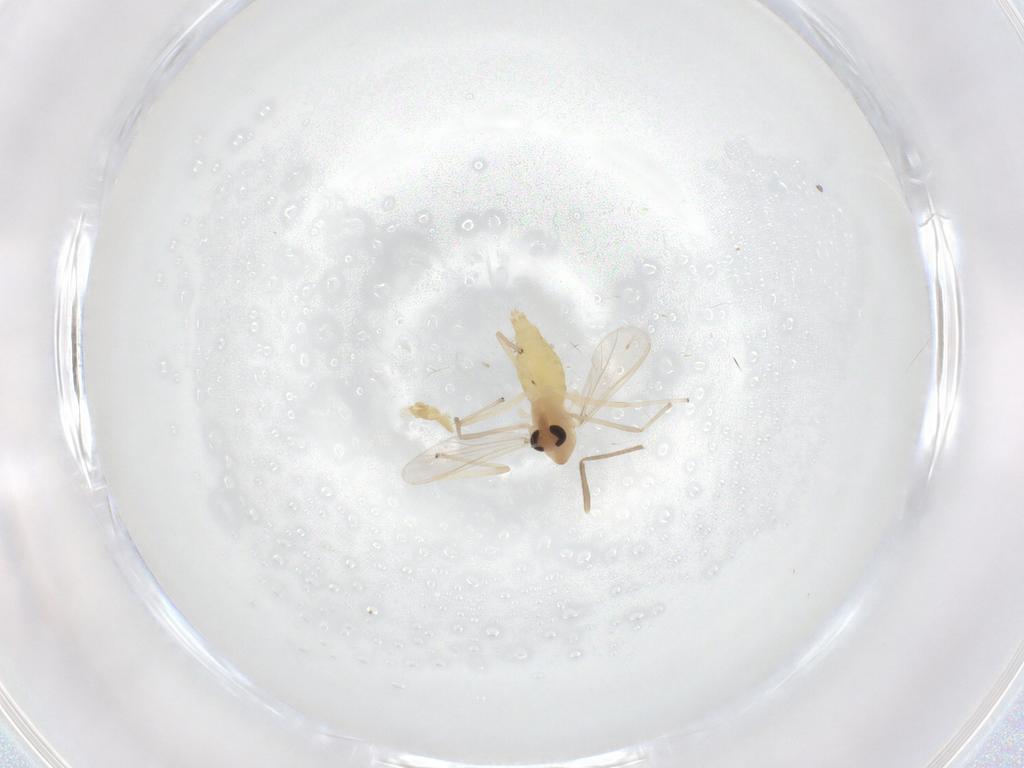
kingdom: Animalia
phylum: Arthropoda
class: Insecta
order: Diptera
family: Chironomidae
